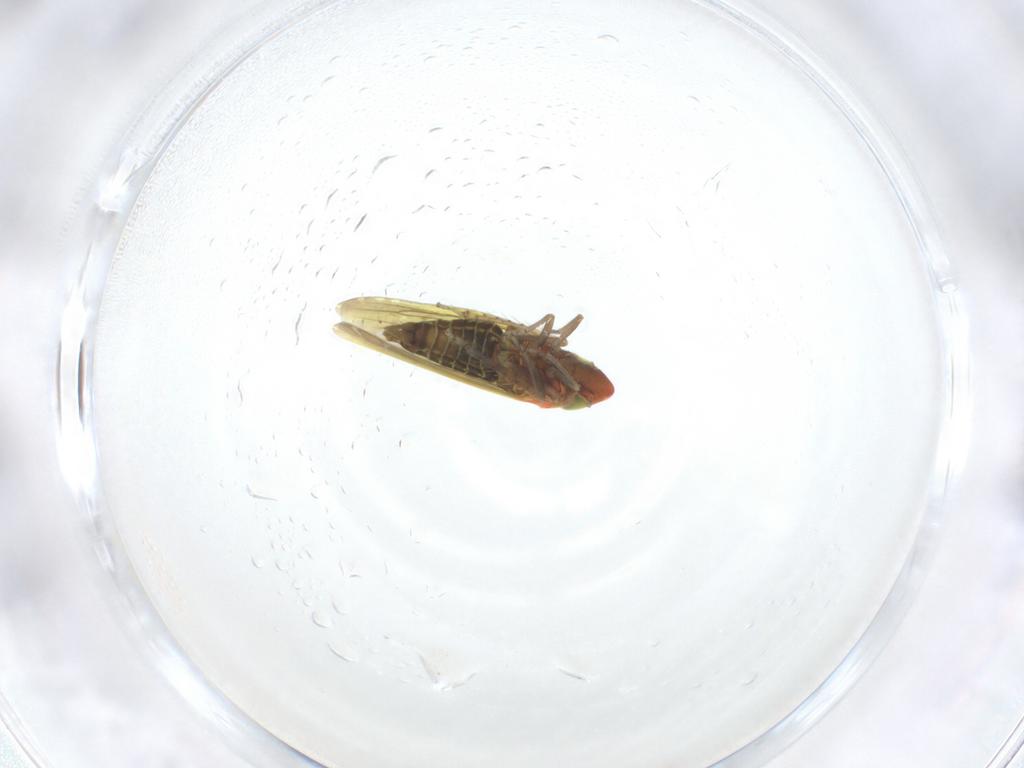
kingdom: Animalia
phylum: Arthropoda
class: Insecta
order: Hemiptera
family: Cicadellidae
